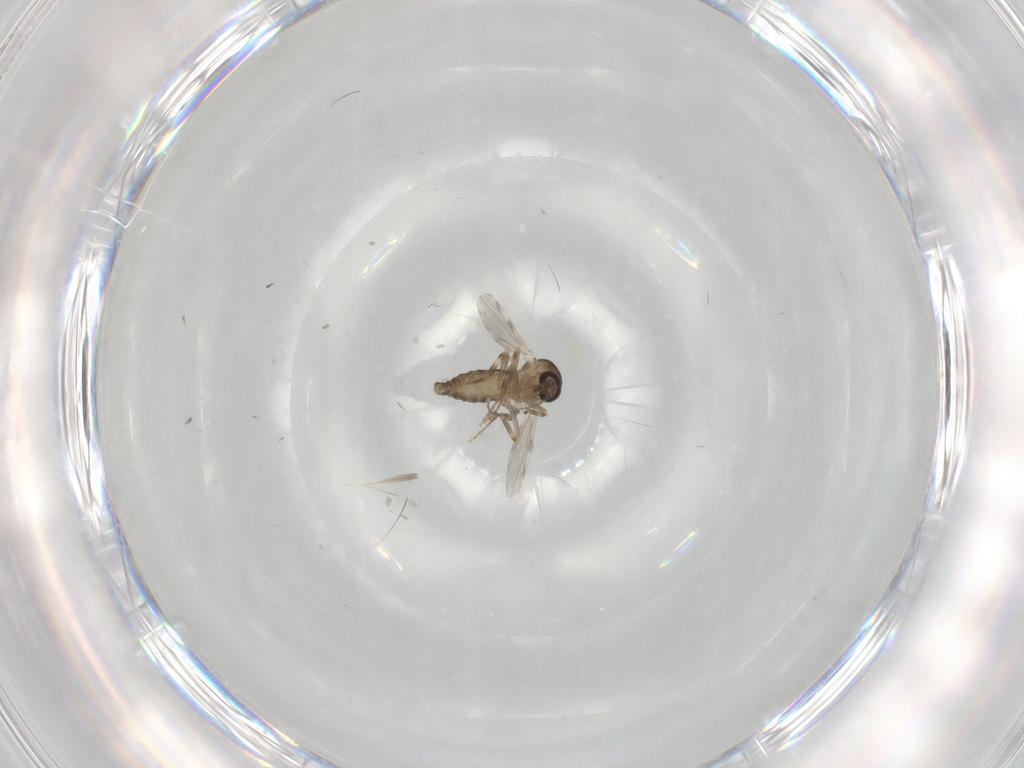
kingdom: Animalia
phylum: Arthropoda
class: Insecta
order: Diptera
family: Ceratopogonidae
